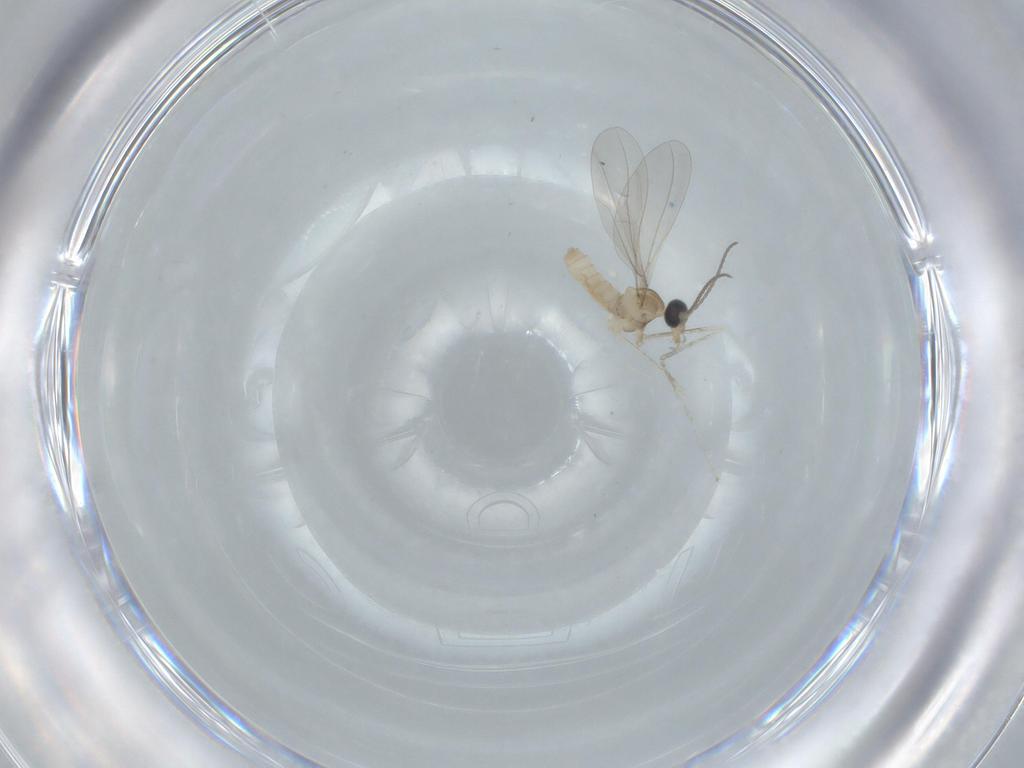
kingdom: Animalia
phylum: Arthropoda
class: Insecta
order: Diptera
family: Cecidomyiidae
